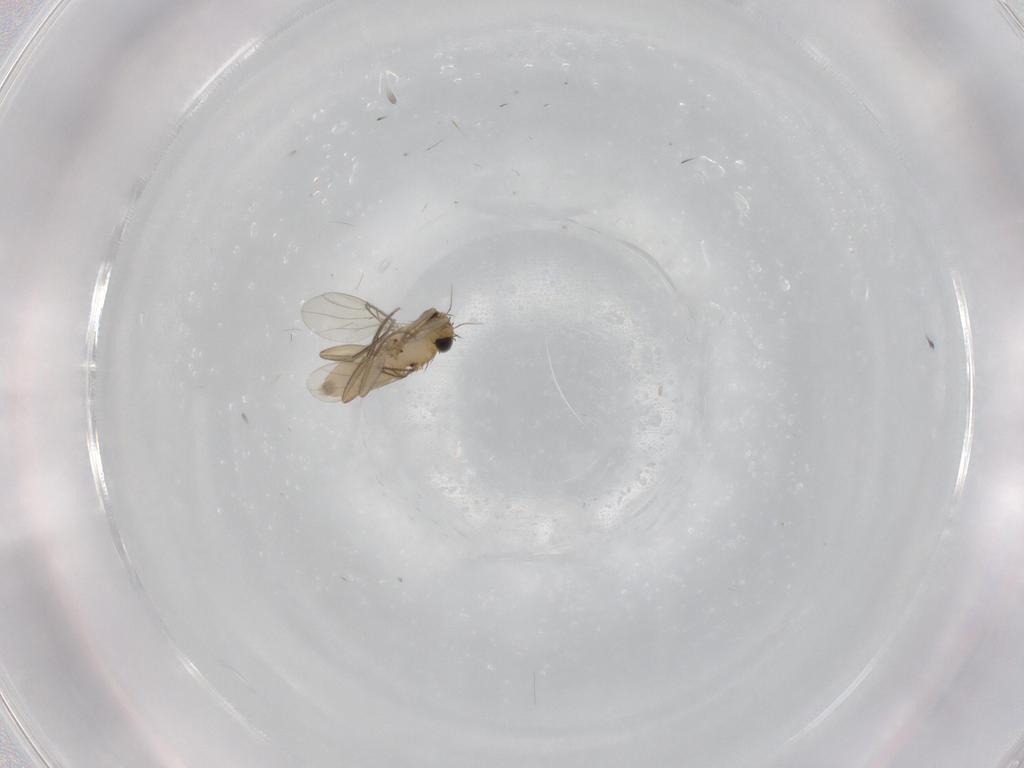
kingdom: Animalia
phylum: Arthropoda
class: Insecta
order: Diptera
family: Phoridae
